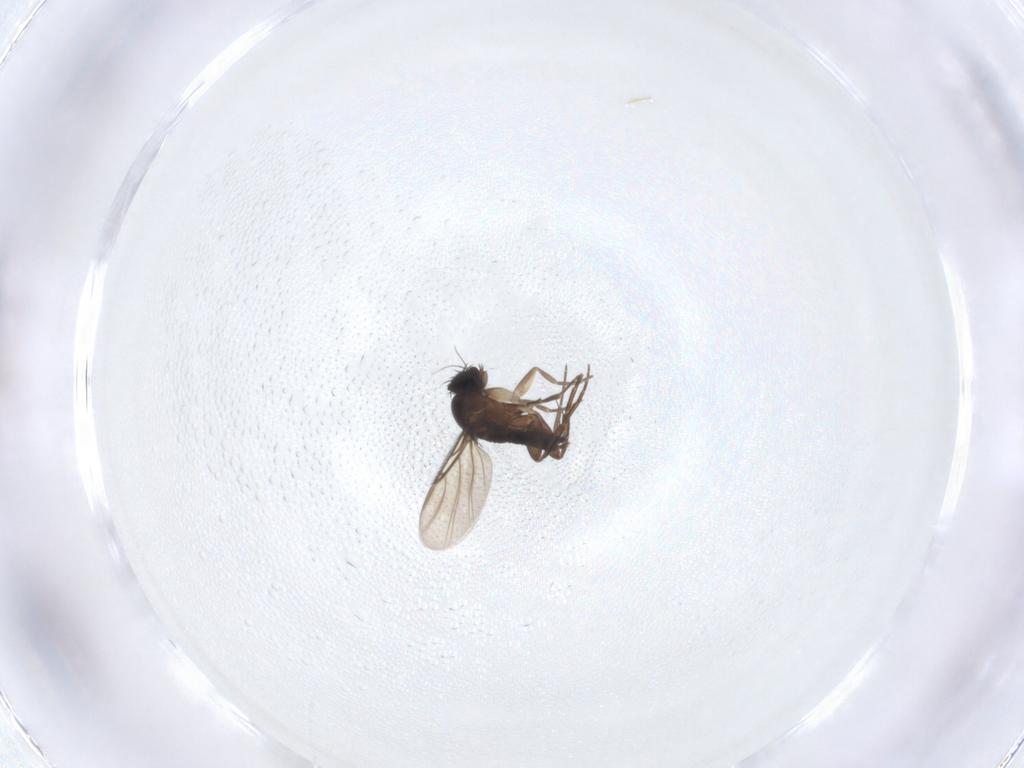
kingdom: Animalia
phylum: Arthropoda
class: Insecta
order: Diptera
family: Phoridae
